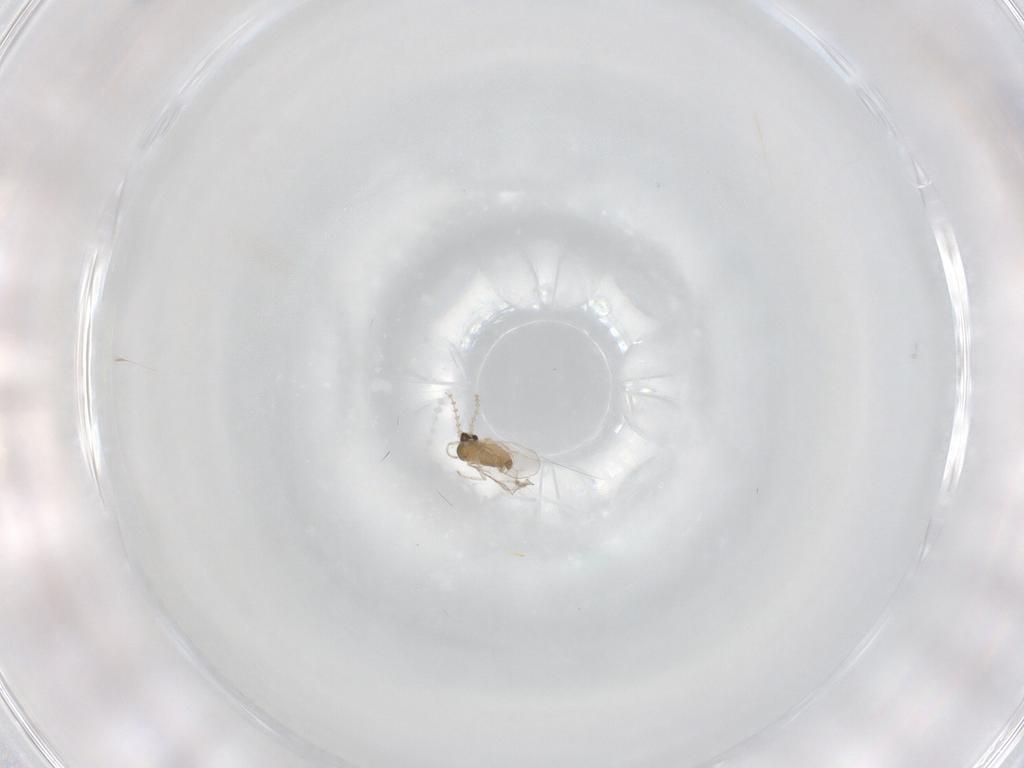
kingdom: Animalia
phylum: Arthropoda
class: Insecta
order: Diptera
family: Cecidomyiidae
